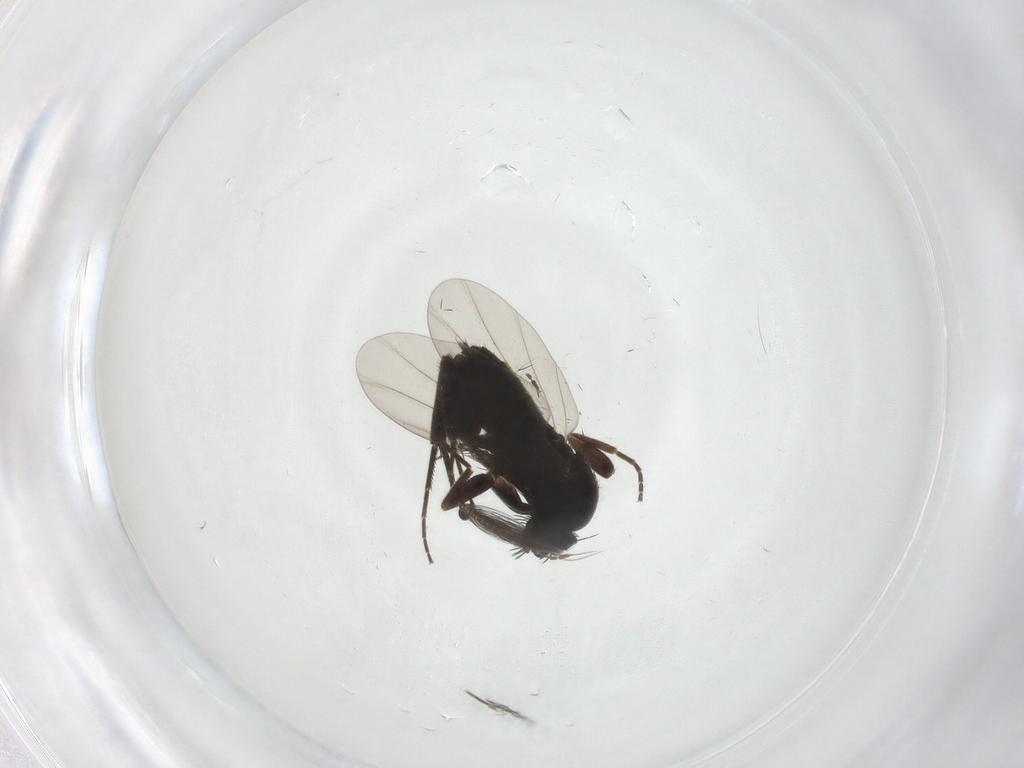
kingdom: Animalia
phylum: Arthropoda
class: Insecta
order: Diptera
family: Phoridae
